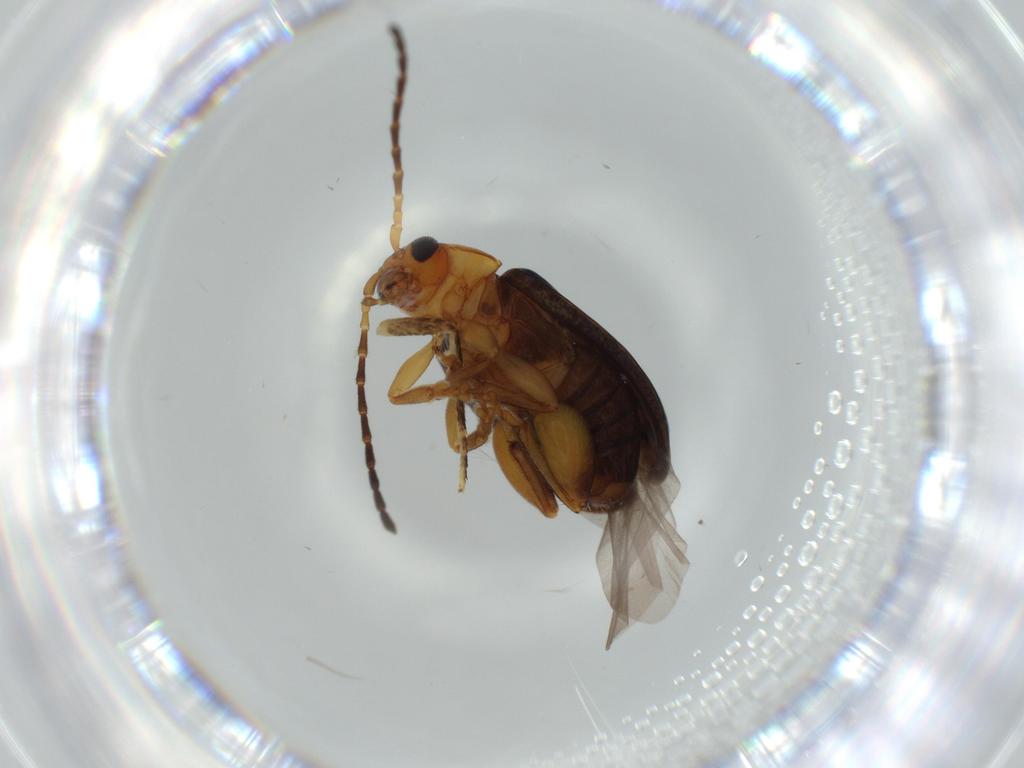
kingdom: Animalia
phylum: Arthropoda
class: Insecta
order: Coleoptera
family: Chrysomelidae
